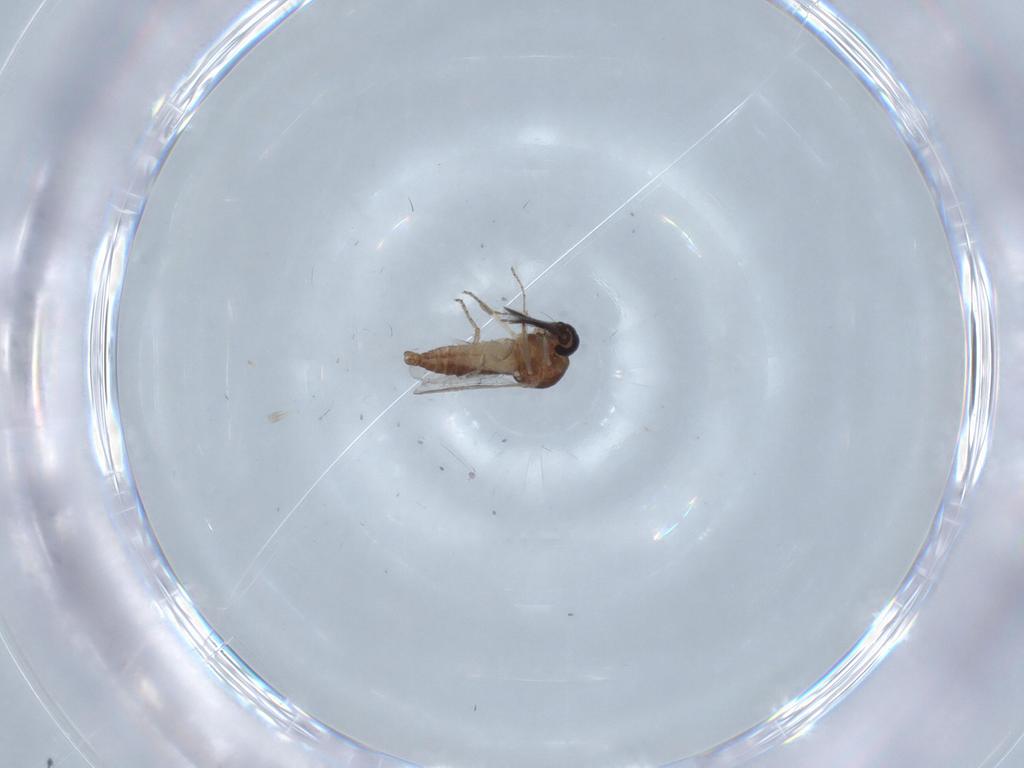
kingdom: Animalia
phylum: Arthropoda
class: Insecta
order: Diptera
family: Ceratopogonidae
